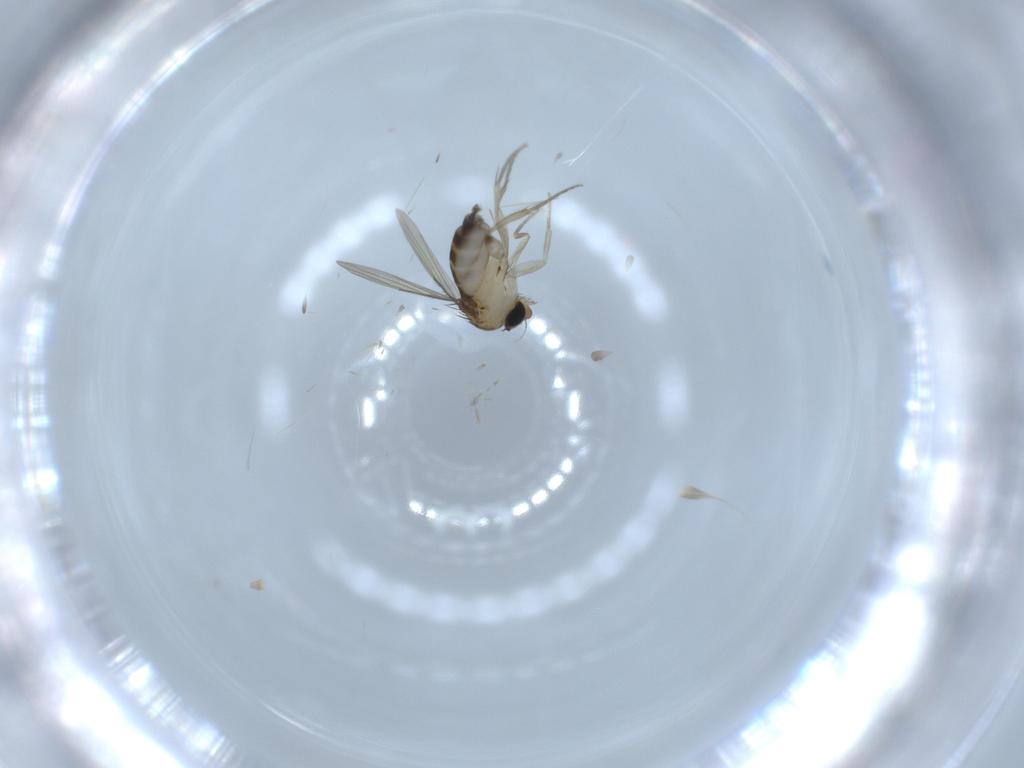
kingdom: Animalia
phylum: Arthropoda
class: Insecta
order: Diptera
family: Phoridae
